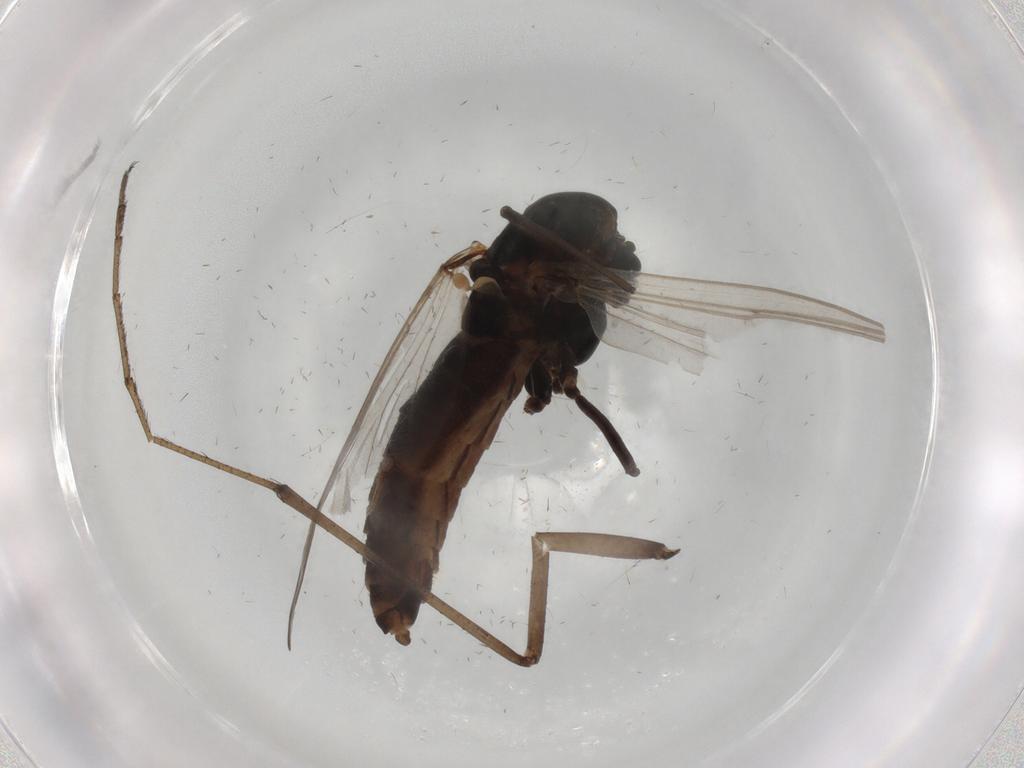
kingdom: Animalia
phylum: Arthropoda
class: Insecta
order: Diptera
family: Chironomidae
